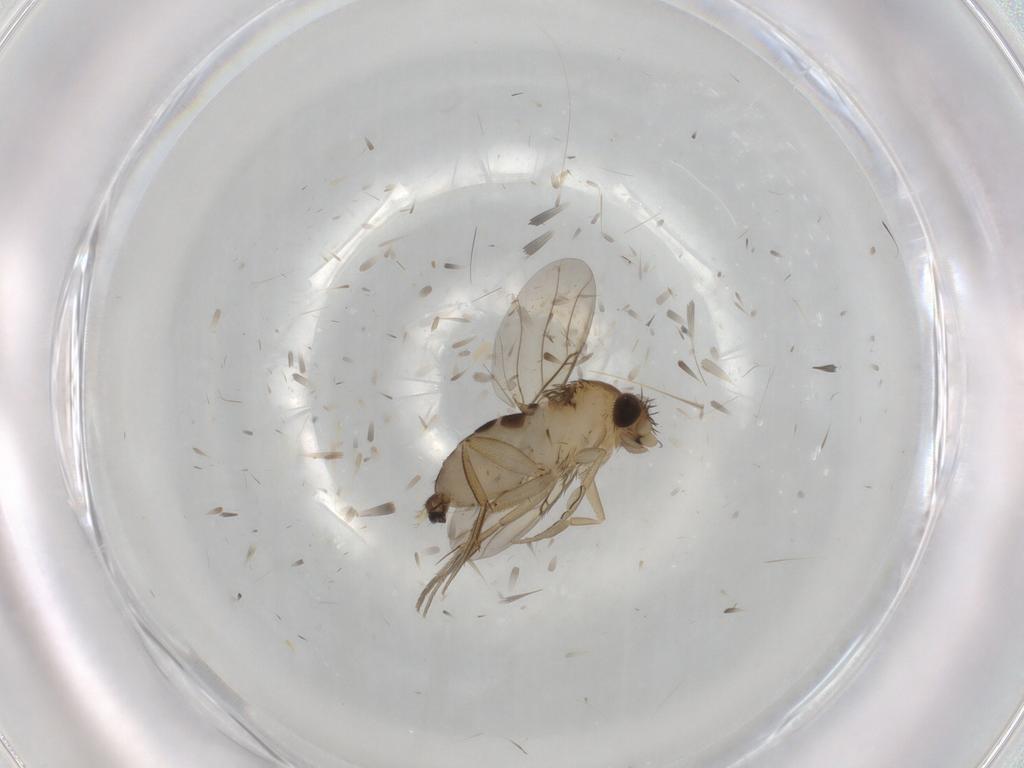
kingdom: Animalia
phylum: Arthropoda
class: Insecta
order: Diptera
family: Phoridae
